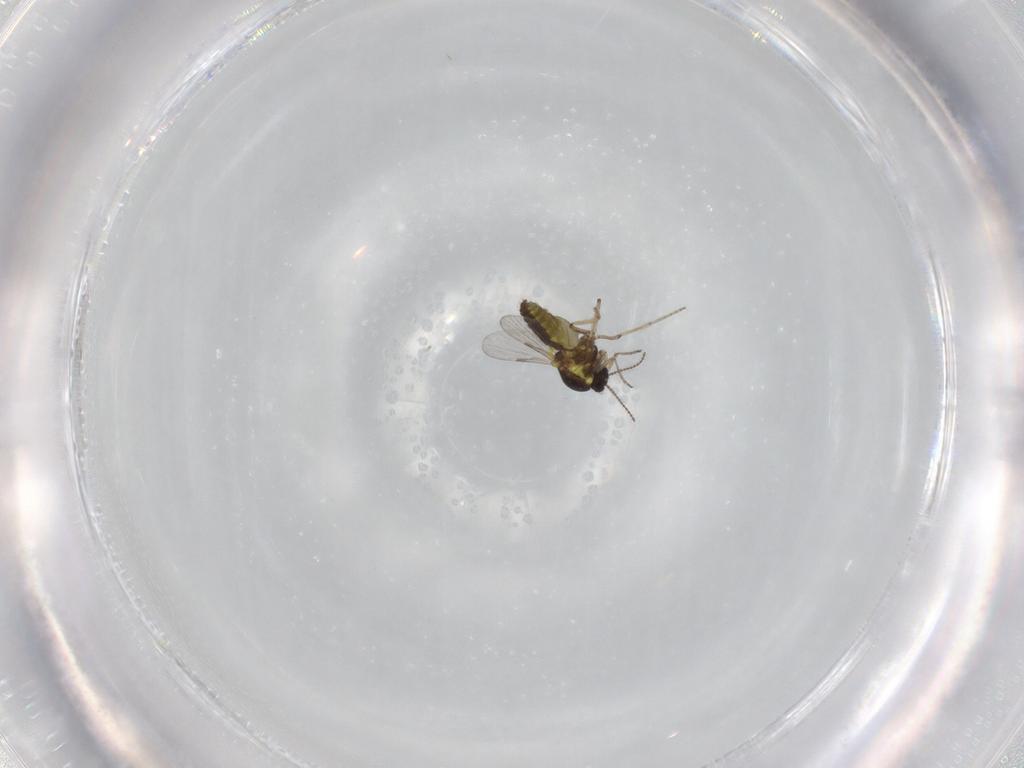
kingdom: Animalia
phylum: Arthropoda
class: Insecta
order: Diptera
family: Ceratopogonidae
